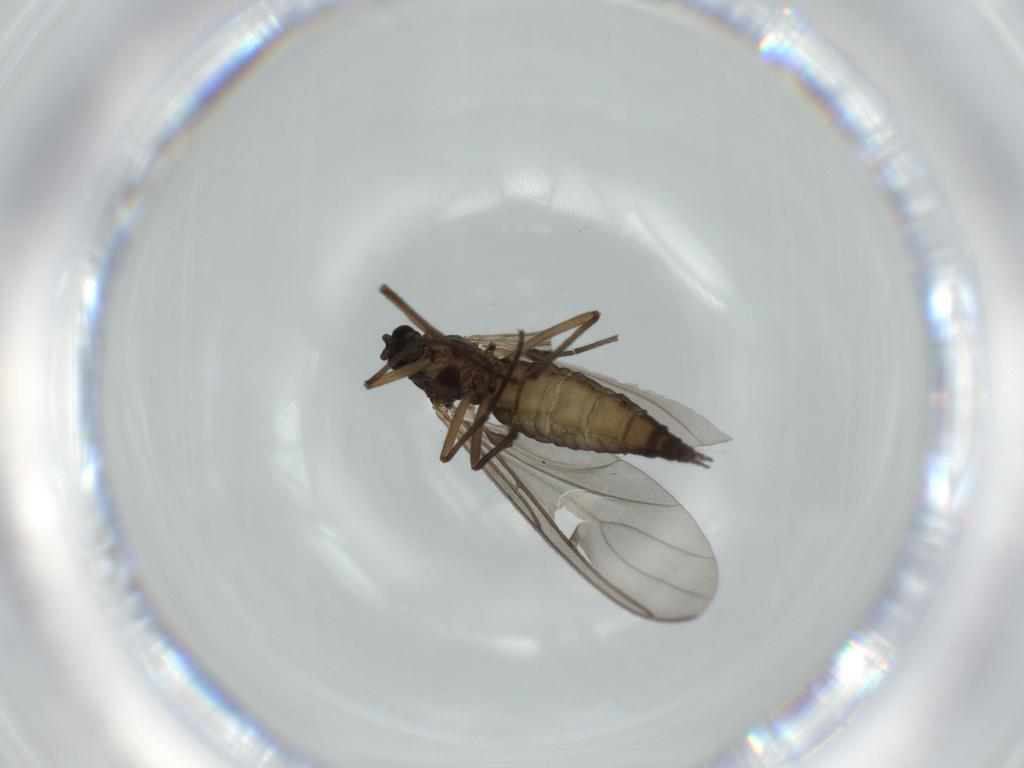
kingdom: Animalia
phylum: Arthropoda
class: Insecta
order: Diptera
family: Sciaridae
